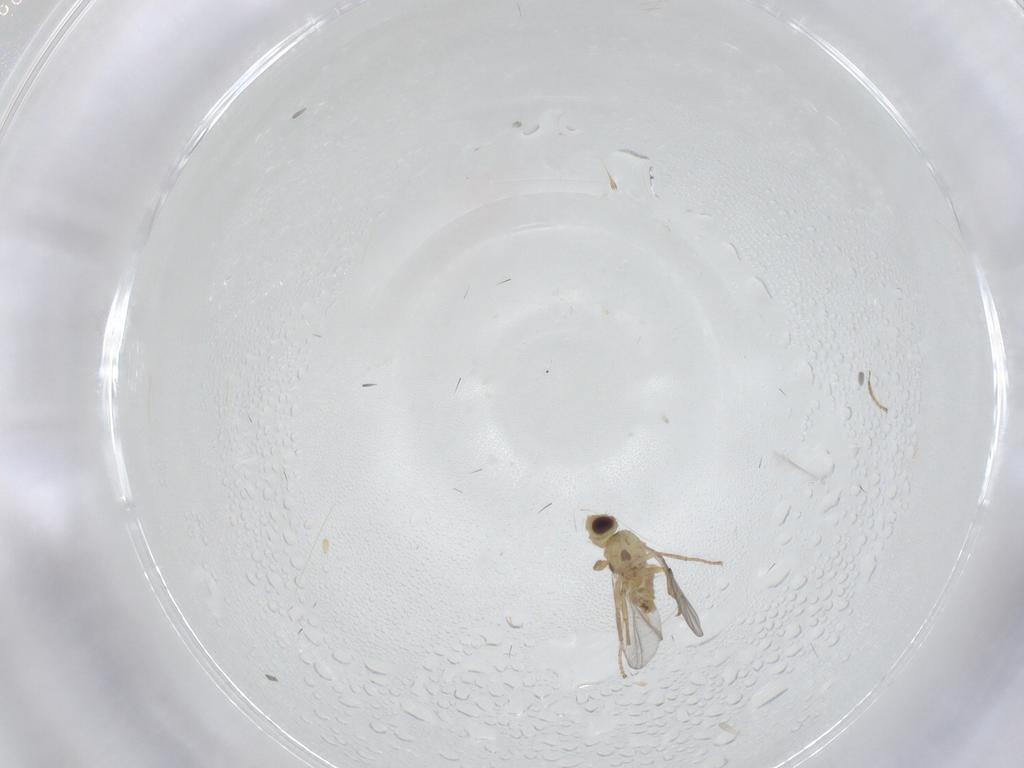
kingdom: Animalia
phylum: Arthropoda
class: Insecta
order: Diptera
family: Agromyzidae
